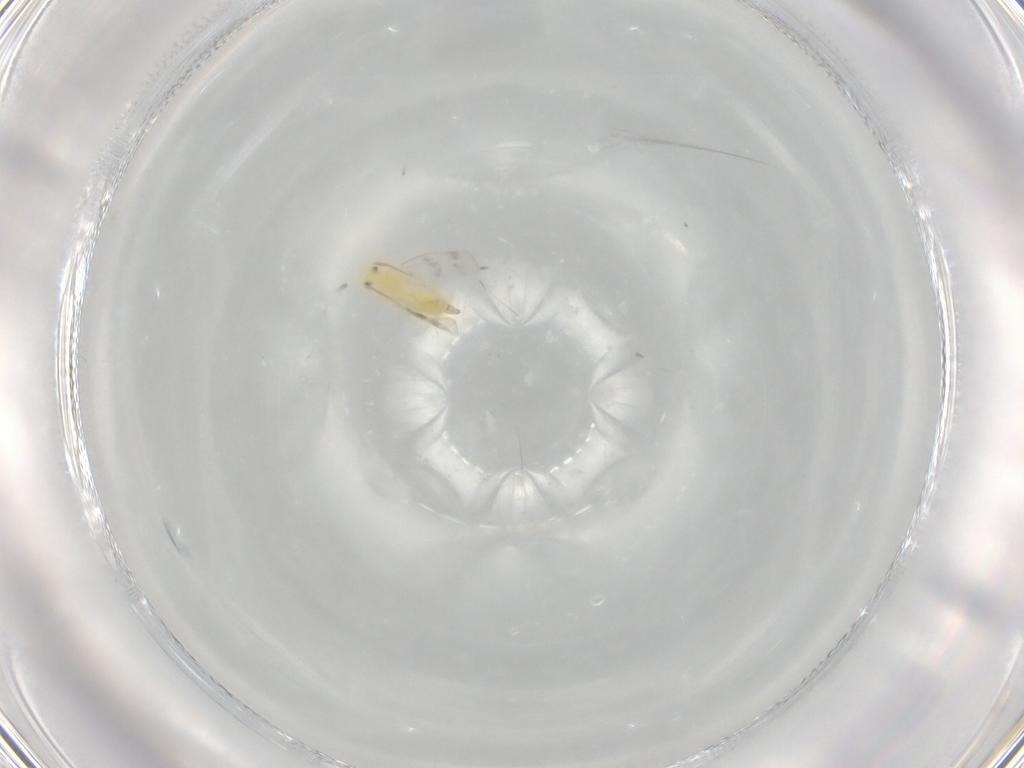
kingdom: Animalia
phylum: Arthropoda
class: Insecta
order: Hemiptera
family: Aleyrodidae
